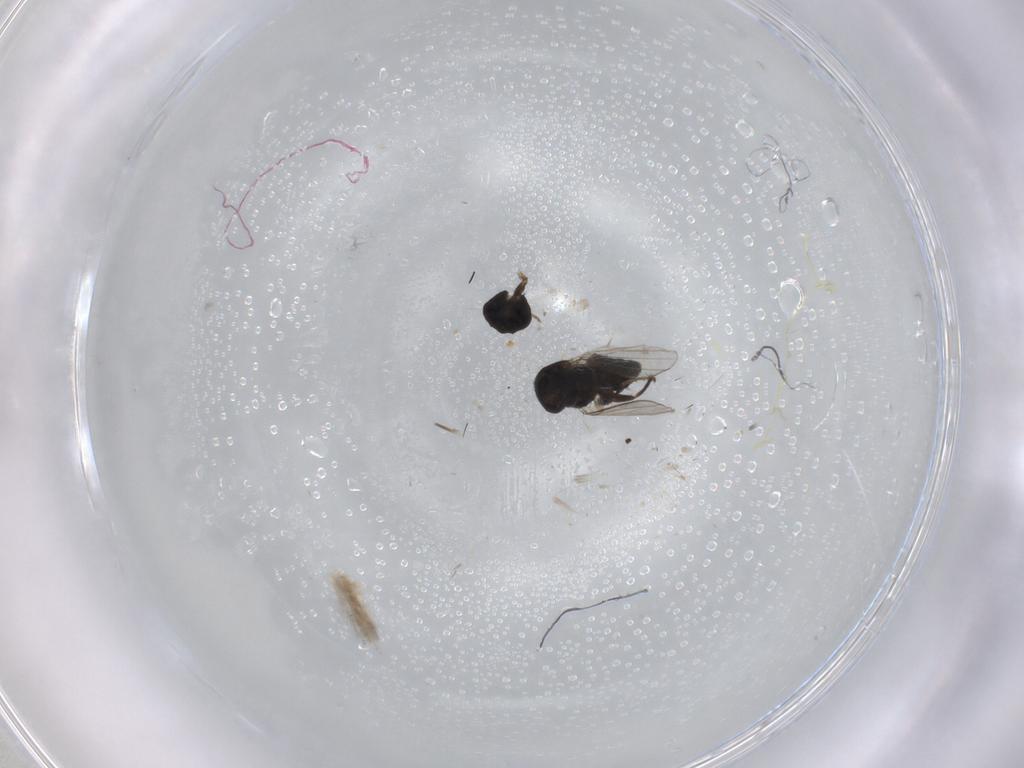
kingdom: Animalia
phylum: Arthropoda
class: Insecta
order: Diptera
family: Milichiidae
